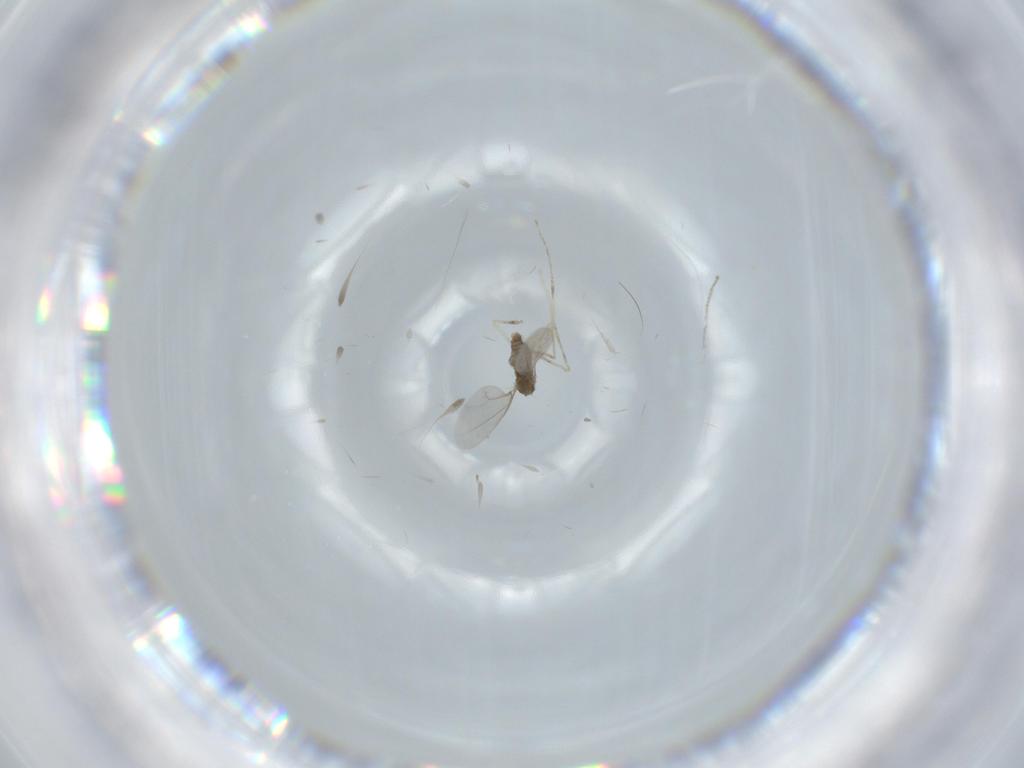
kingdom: Animalia
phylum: Arthropoda
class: Insecta
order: Diptera
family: Cecidomyiidae
